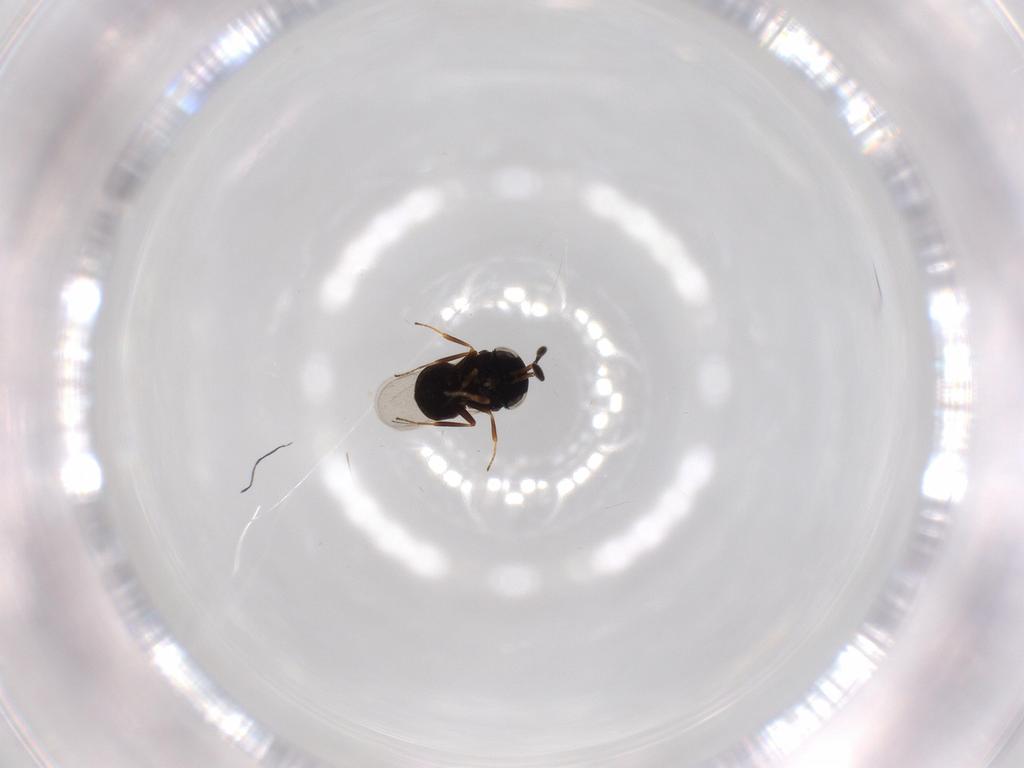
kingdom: Animalia
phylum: Arthropoda
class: Insecta
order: Hymenoptera
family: Scelionidae
